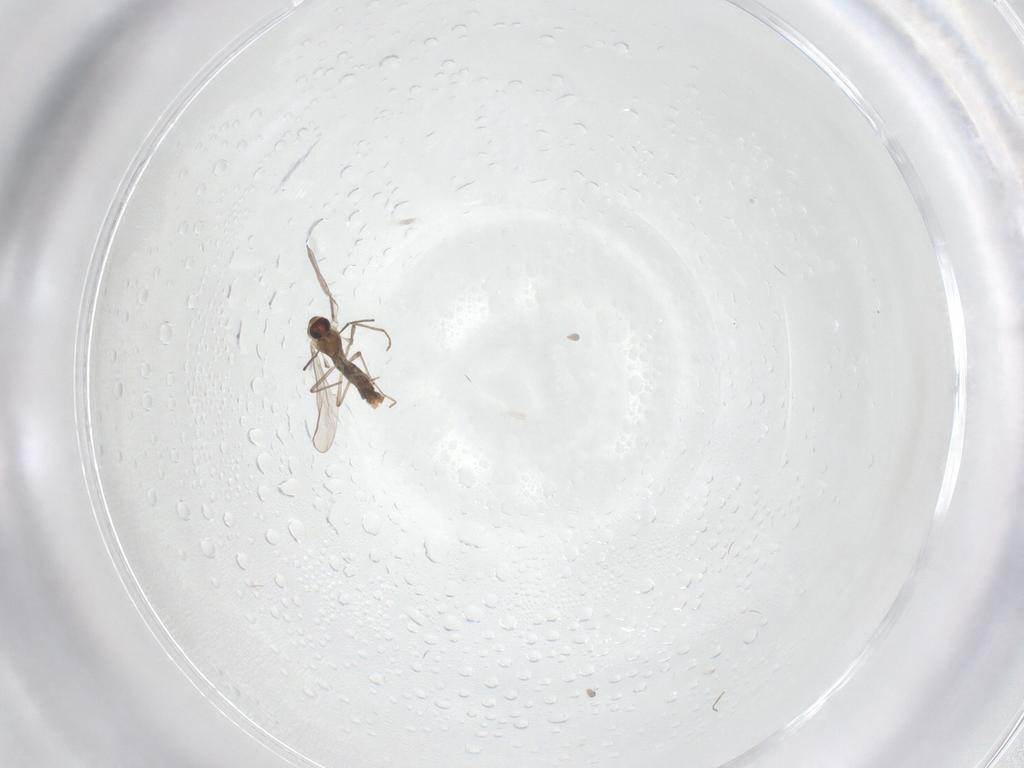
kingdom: Animalia
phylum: Arthropoda
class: Insecta
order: Diptera
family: Chironomidae
